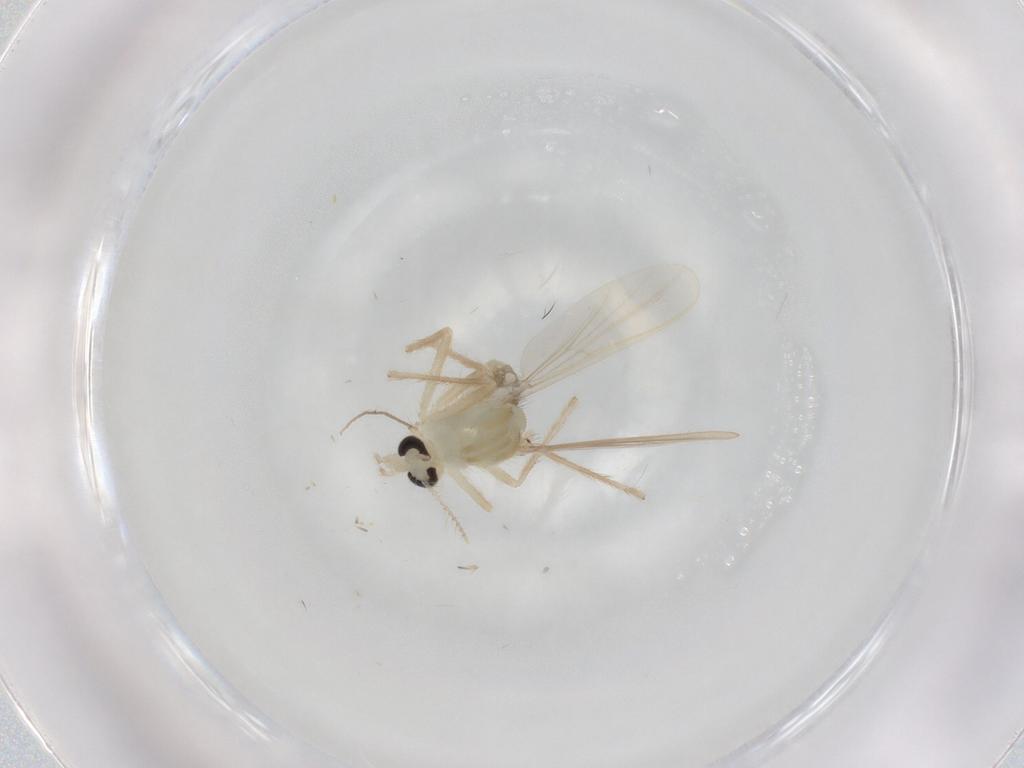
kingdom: Animalia
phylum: Arthropoda
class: Insecta
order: Diptera
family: Chironomidae
